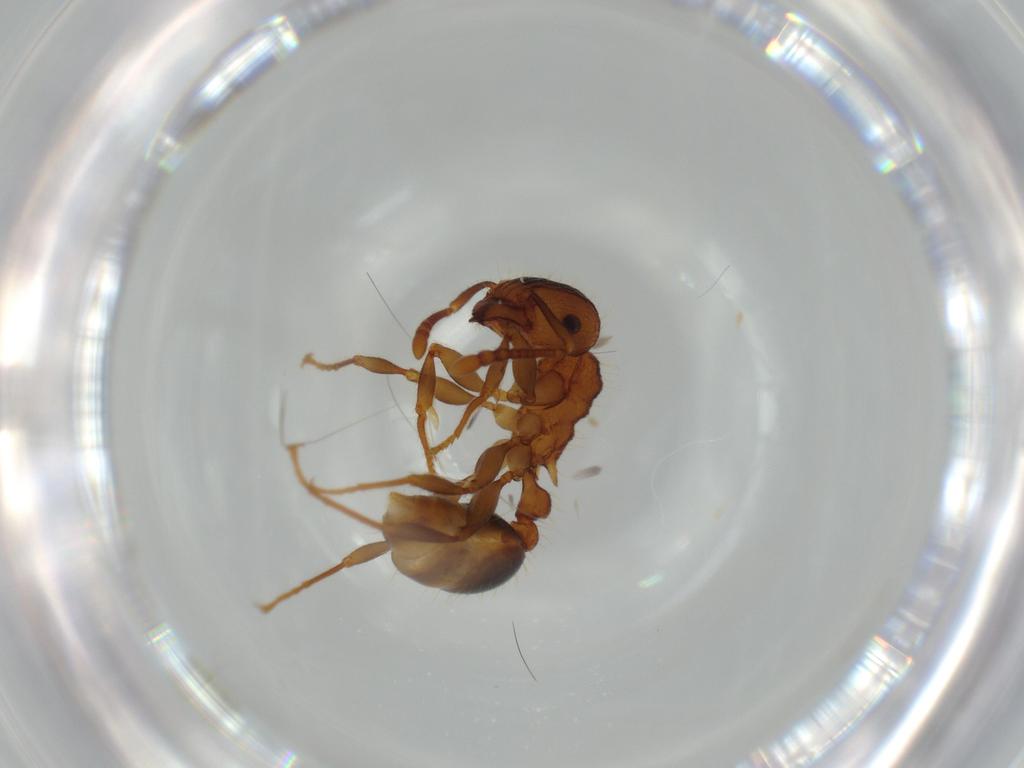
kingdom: Animalia
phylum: Arthropoda
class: Insecta
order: Hymenoptera
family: Formicidae
